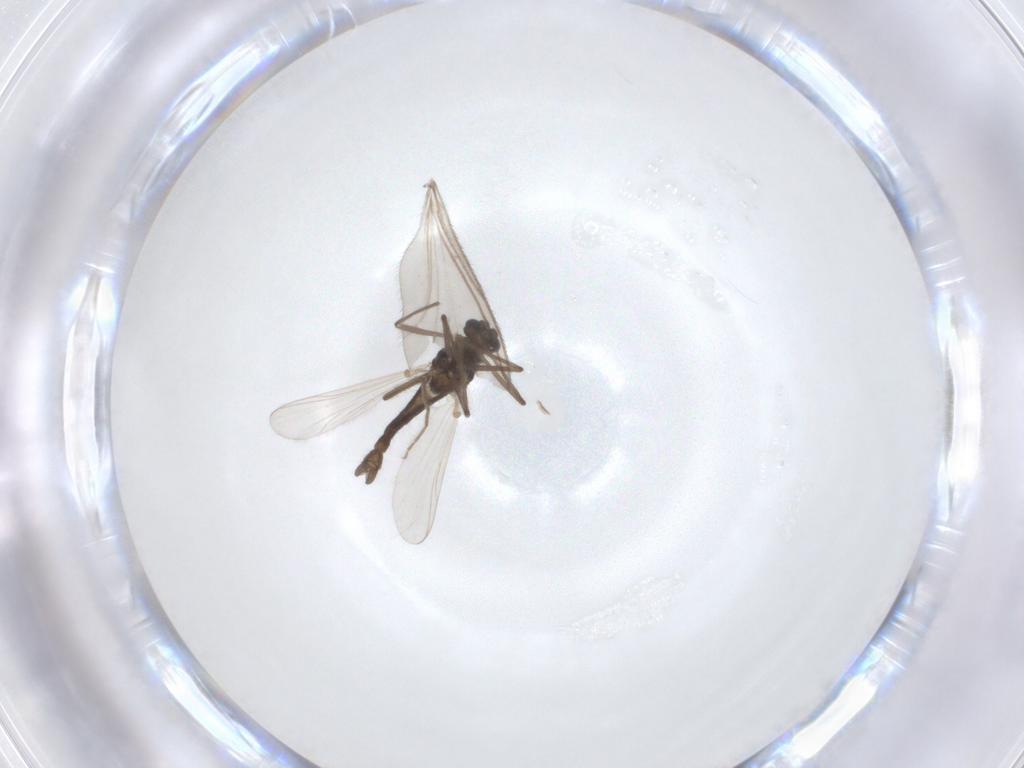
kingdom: Animalia
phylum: Arthropoda
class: Insecta
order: Diptera
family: Chironomidae
